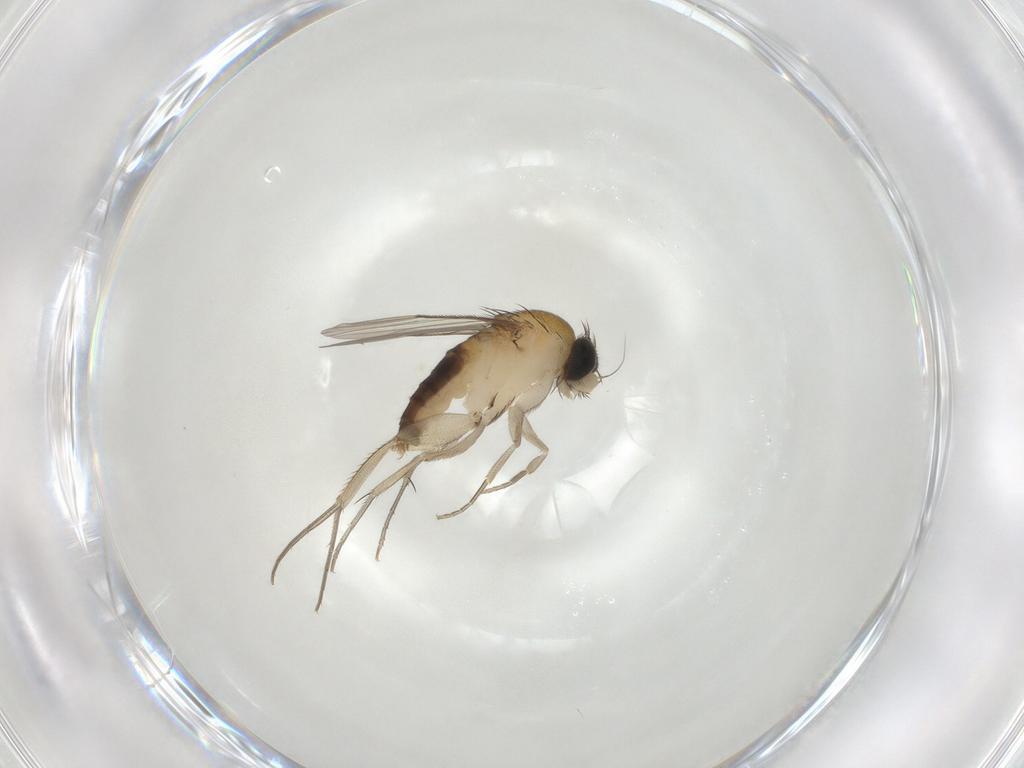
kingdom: Animalia
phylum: Arthropoda
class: Insecta
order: Diptera
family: Phoridae
